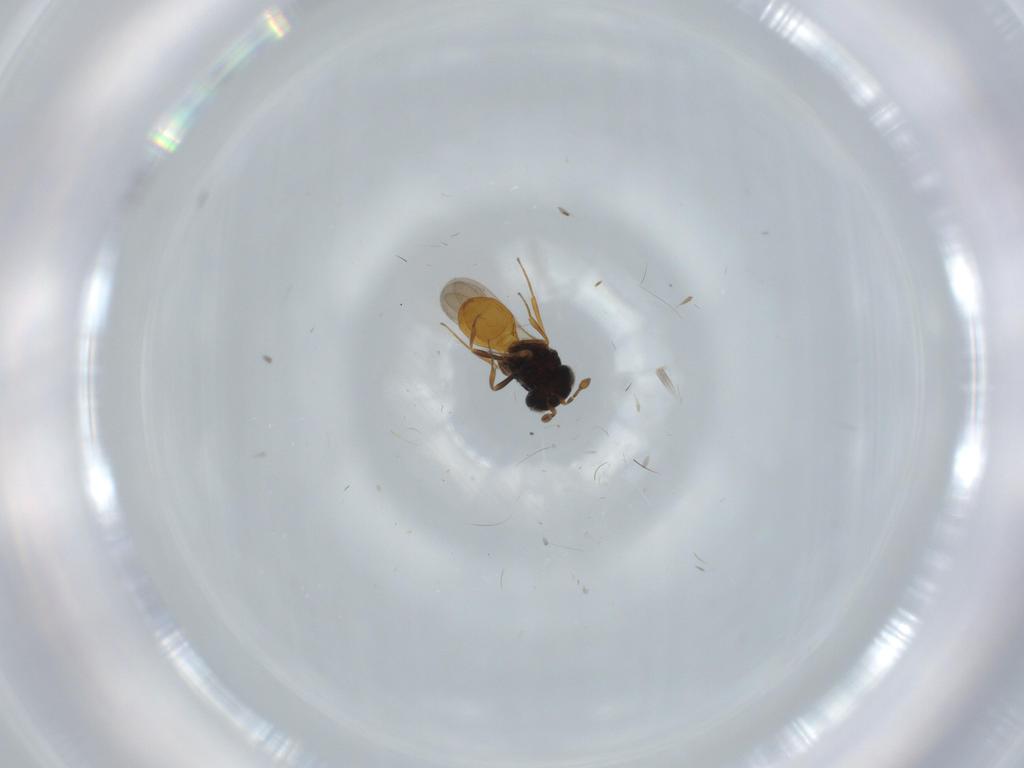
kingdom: Animalia
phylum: Arthropoda
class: Insecta
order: Hymenoptera
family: Scelionidae
